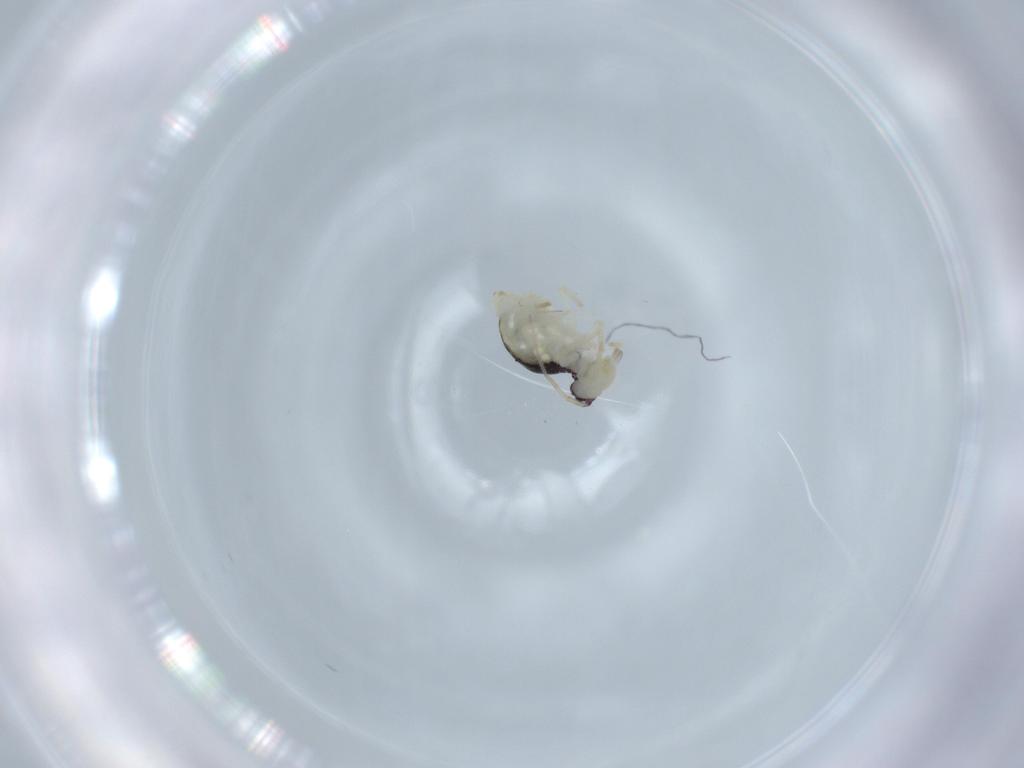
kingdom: Animalia
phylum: Arthropoda
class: Collembola
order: Symphypleona
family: Bourletiellidae
